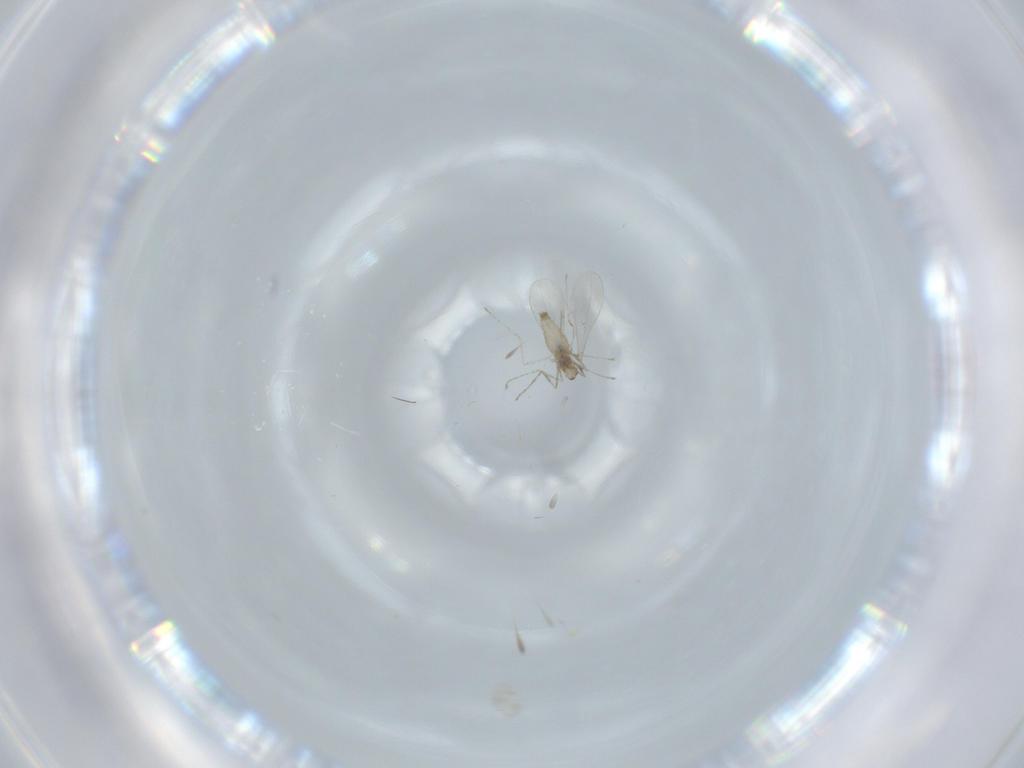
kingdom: Animalia
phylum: Arthropoda
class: Insecta
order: Diptera
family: Cecidomyiidae
